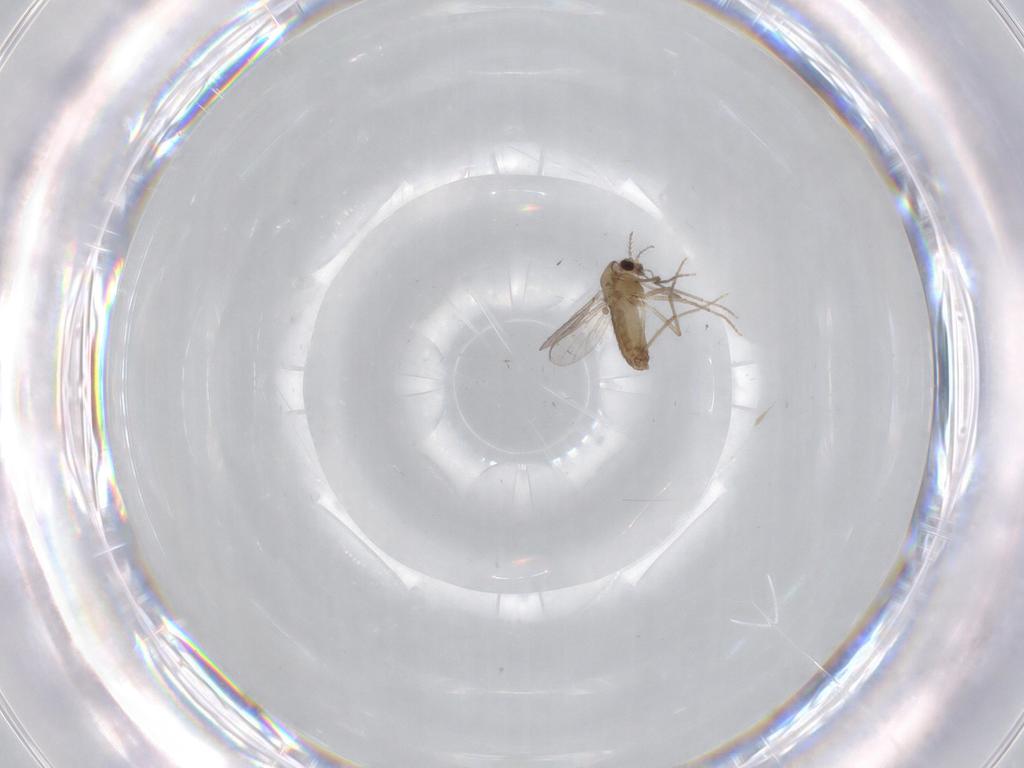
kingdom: Animalia
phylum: Arthropoda
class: Insecta
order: Diptera
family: Chironomidae
